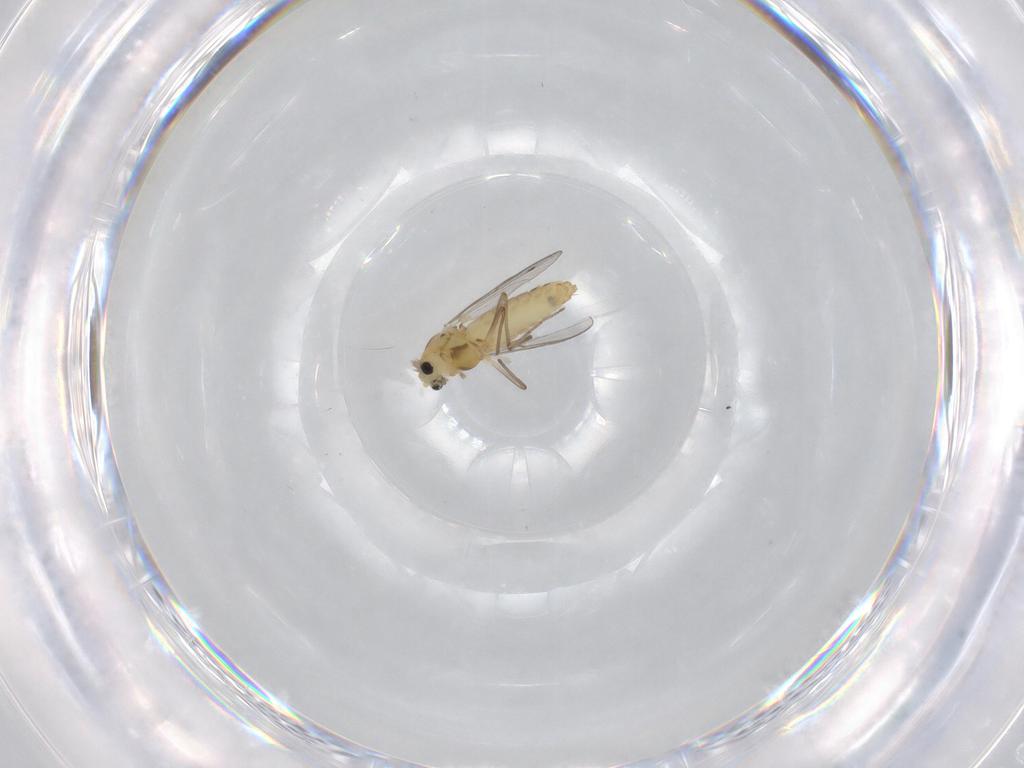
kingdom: Animalia
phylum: Arthropoda
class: Insecta
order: Diptera
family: Chironomidae
